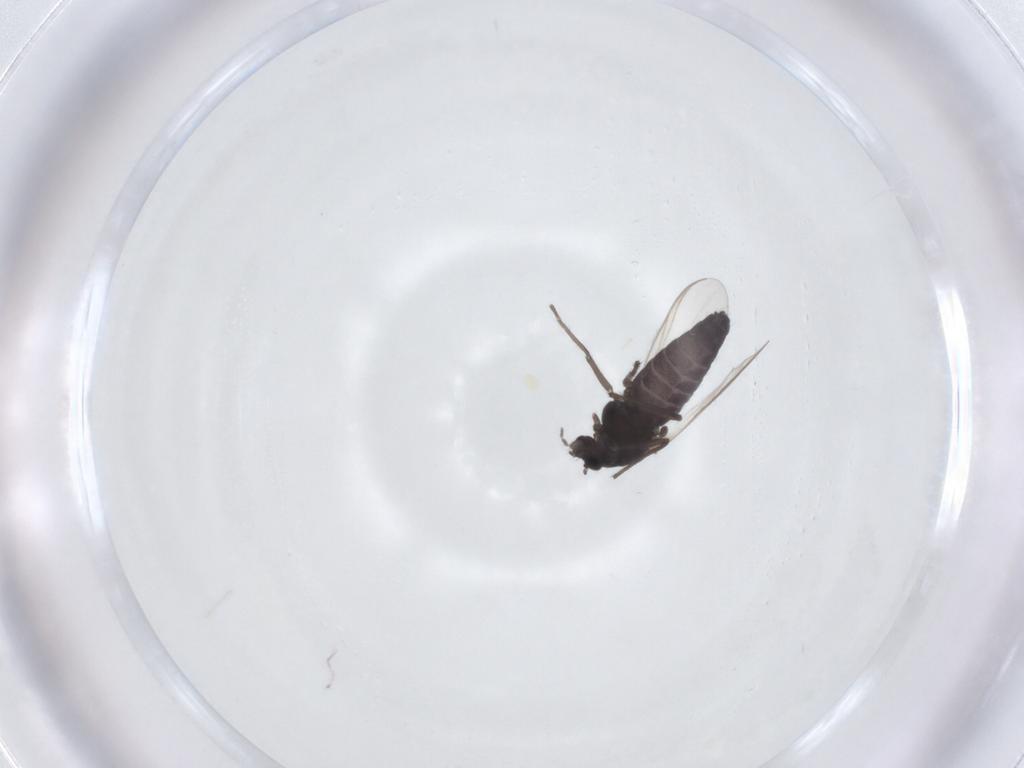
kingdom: Animalia
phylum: Arthropoda
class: Insecta
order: Diptera
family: Chironomidae
